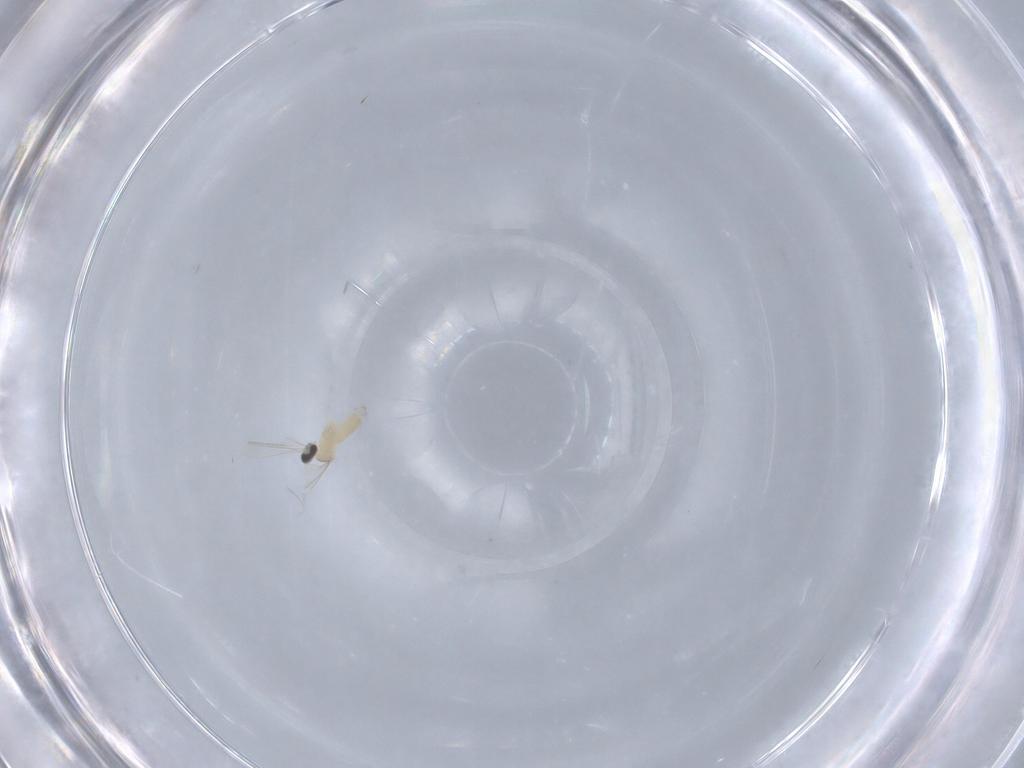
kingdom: Animalia
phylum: Arthropoda
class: Insecta
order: Diptera
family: Cecidomyiidae
